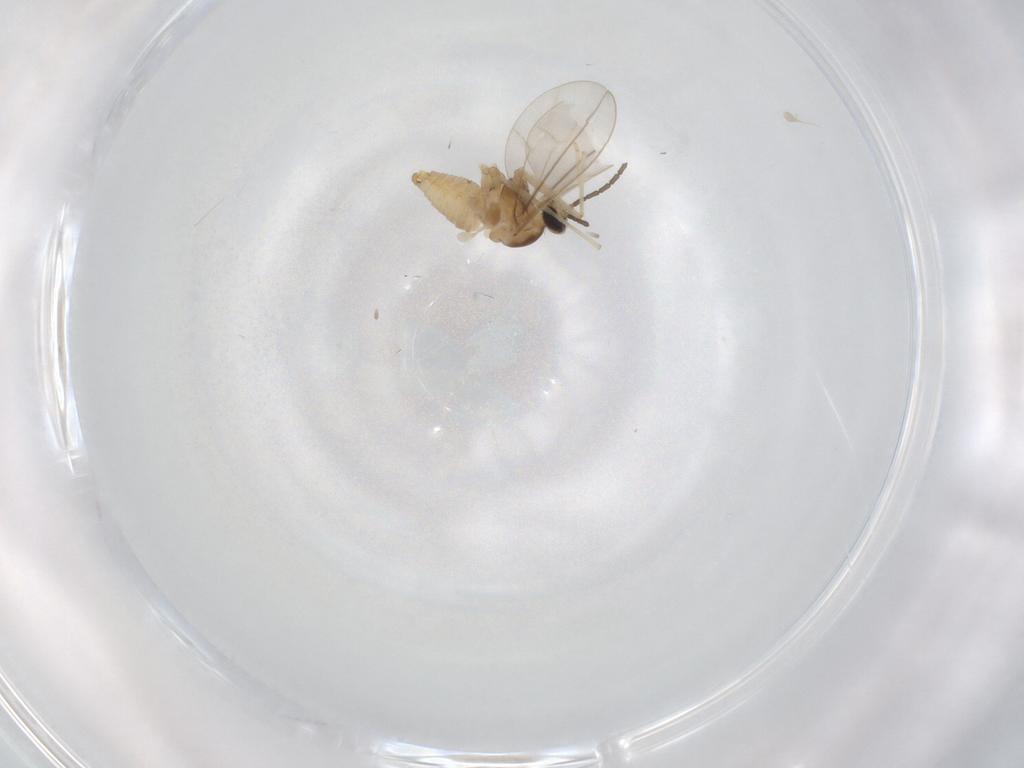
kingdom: Animalia
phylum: Arthropoda
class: Insecta
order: Diptera
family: Cecidomyiidae
